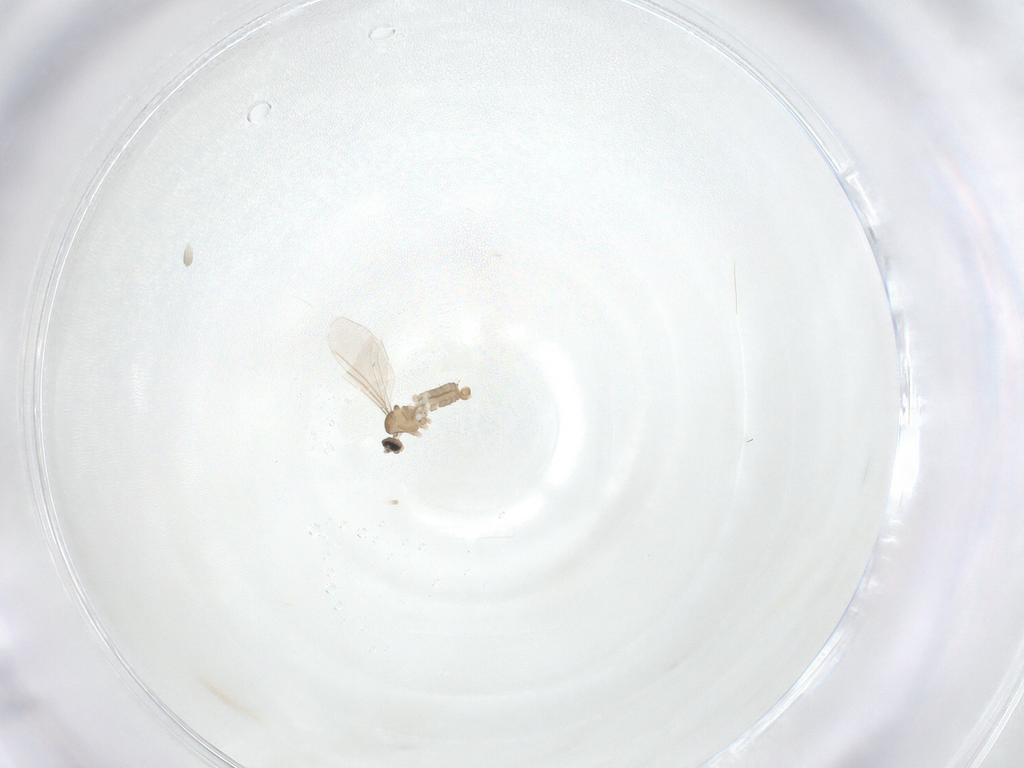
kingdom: Animalia
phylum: Arthropoda
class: Insecta
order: Diptera
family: Cecidomyiidae
